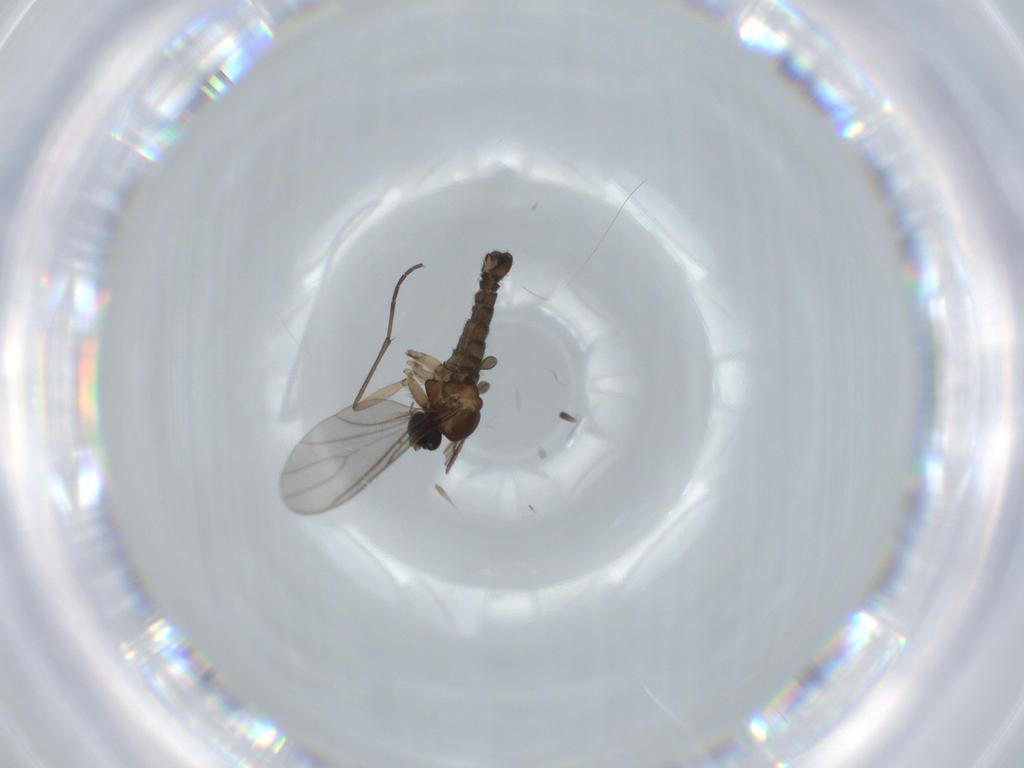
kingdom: Animalia
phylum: Arthropoda
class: Insecta
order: Diptera
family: Sciaridae
